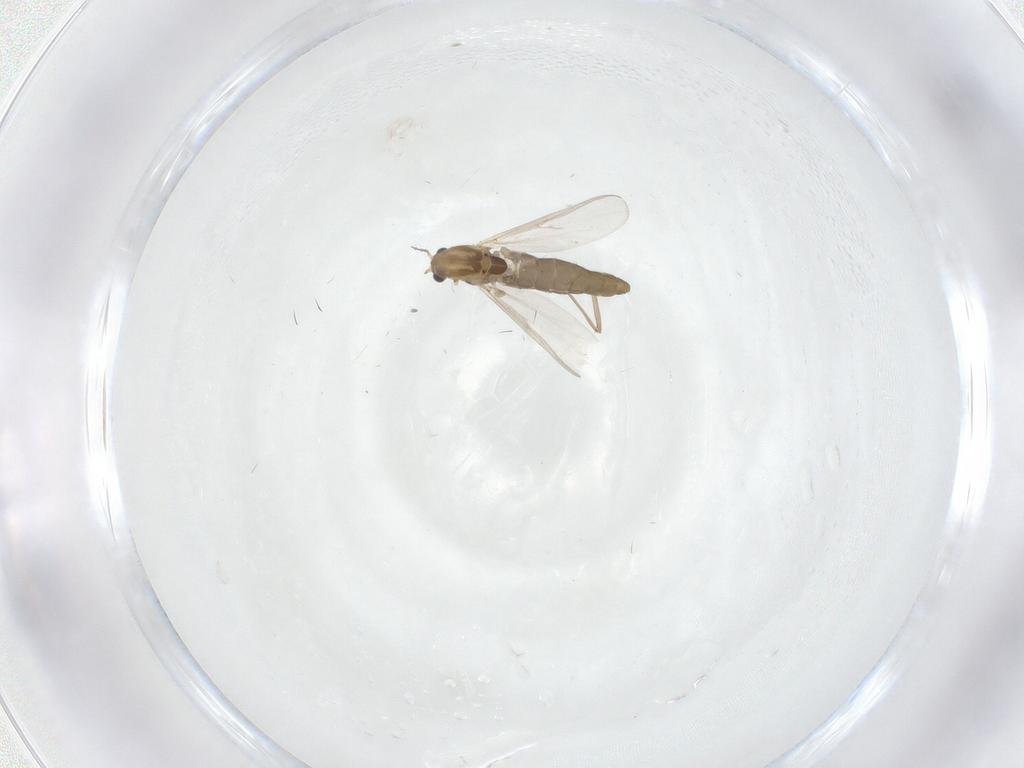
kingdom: Animalia
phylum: Arthropoda
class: Insecta
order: Diptera
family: Chironomidae
